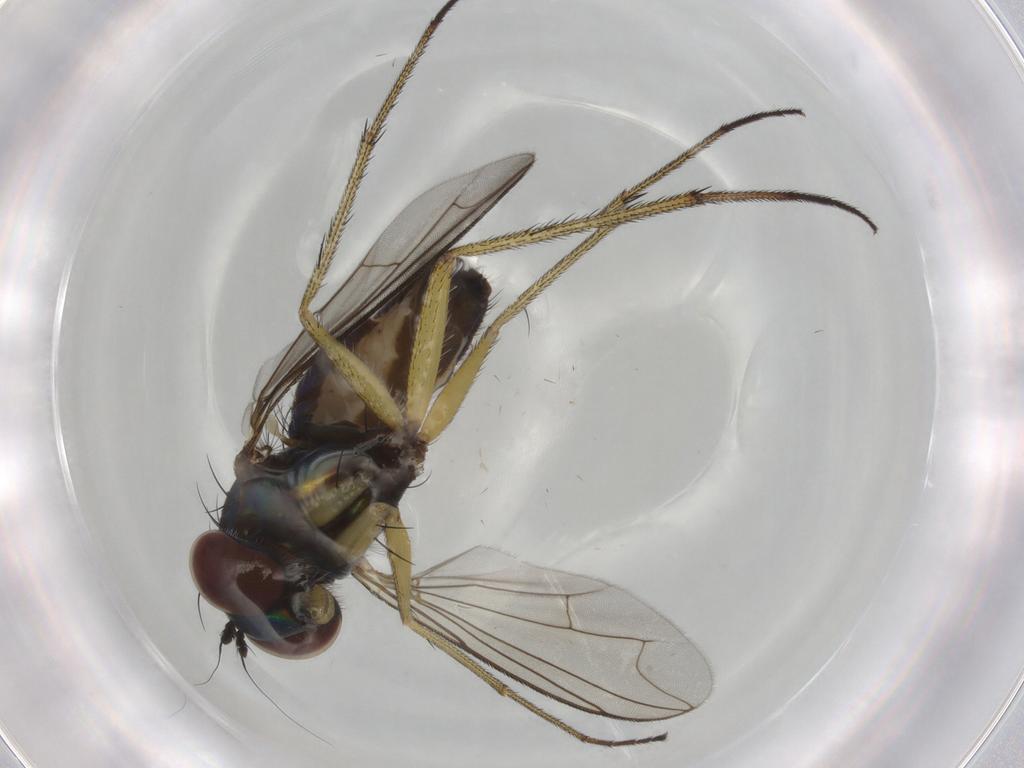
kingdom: Animalia
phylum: Arthropoda
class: Insecta
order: Diptera
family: Dolichopodidae
